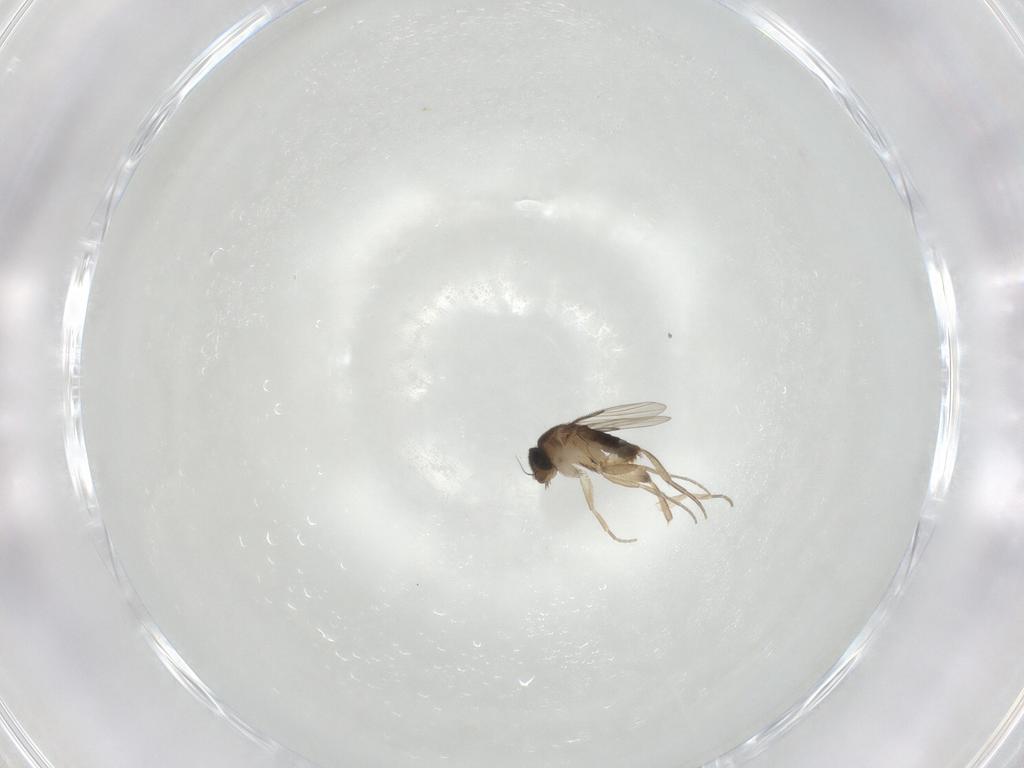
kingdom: Animalia
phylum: Arthropoda
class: Insecta
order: Diptera
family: Phoridae
